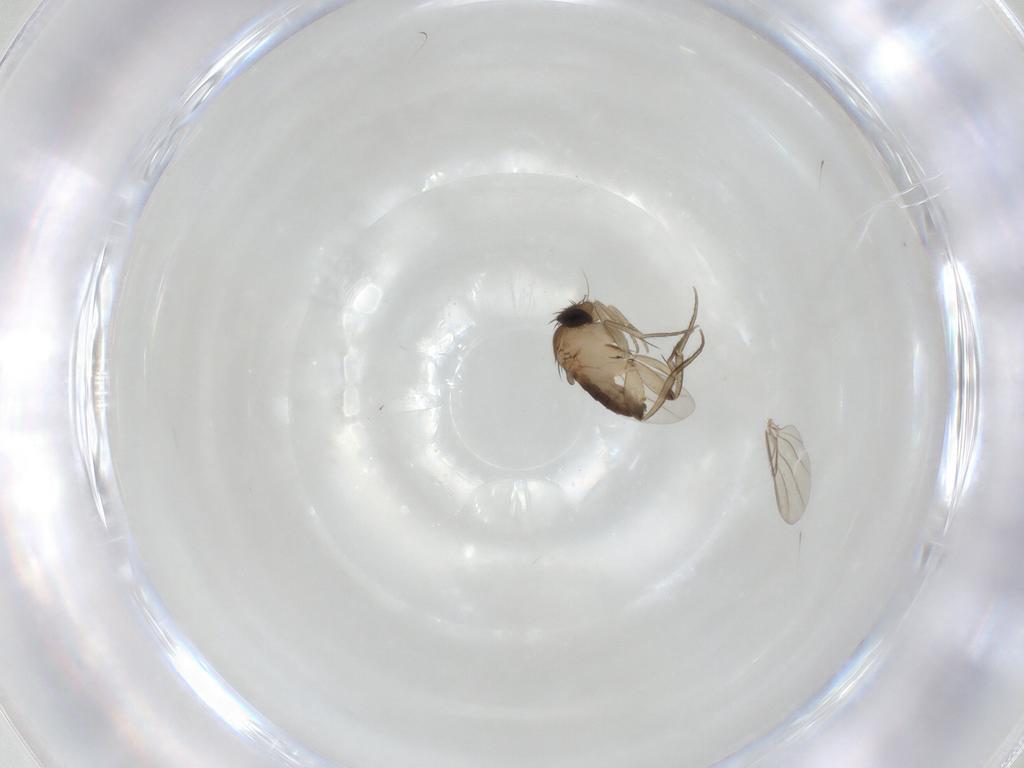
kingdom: Animalia
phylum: Arthropoda
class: Insecta
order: Diptera
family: Phoridae
